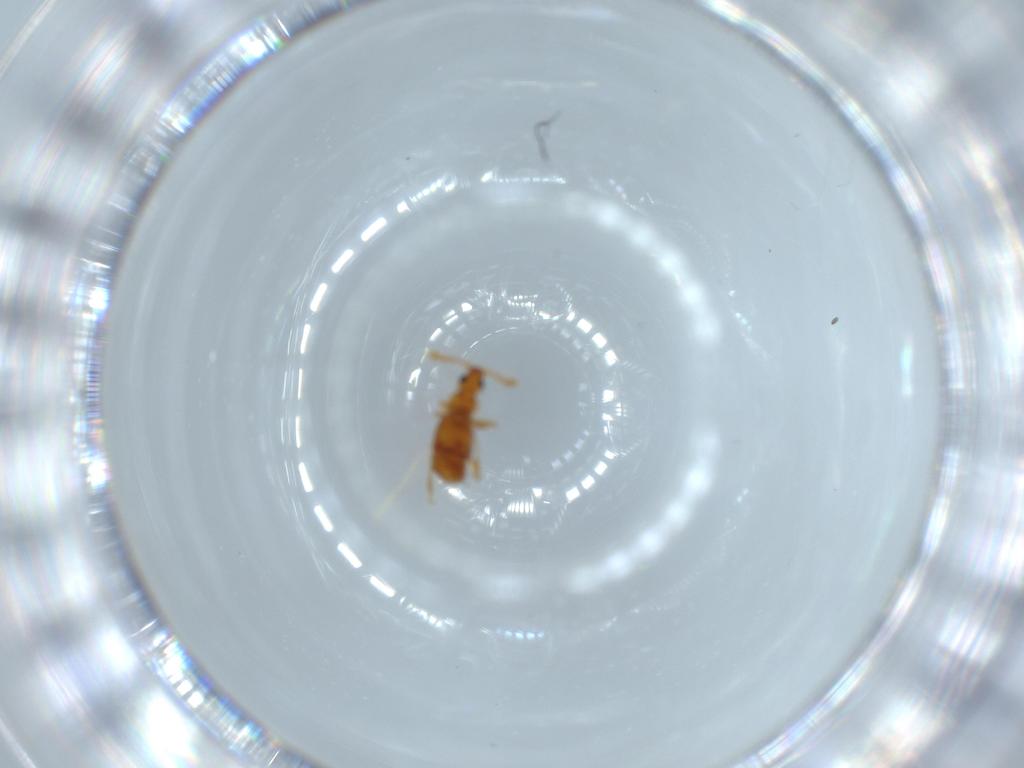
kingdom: Animalia
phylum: Arthropoda
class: Insecta
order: Coleoptera
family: Staphylinidae
